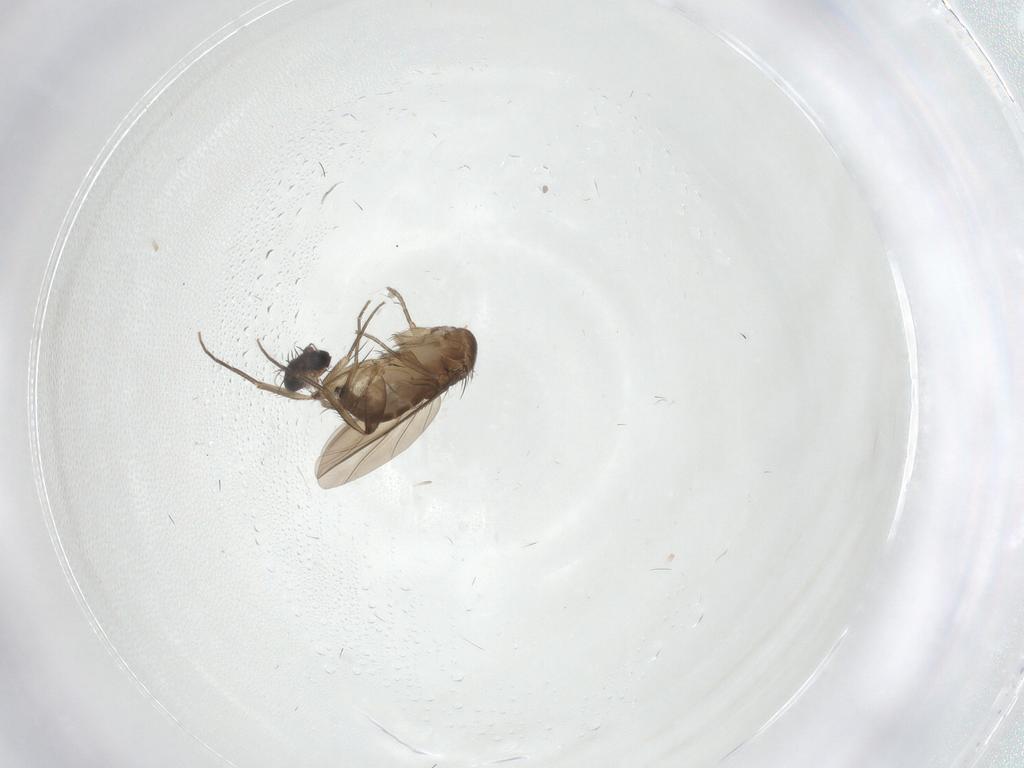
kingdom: Animalia
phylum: Arthropoda
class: Insecta
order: Diptera
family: Phoridae
